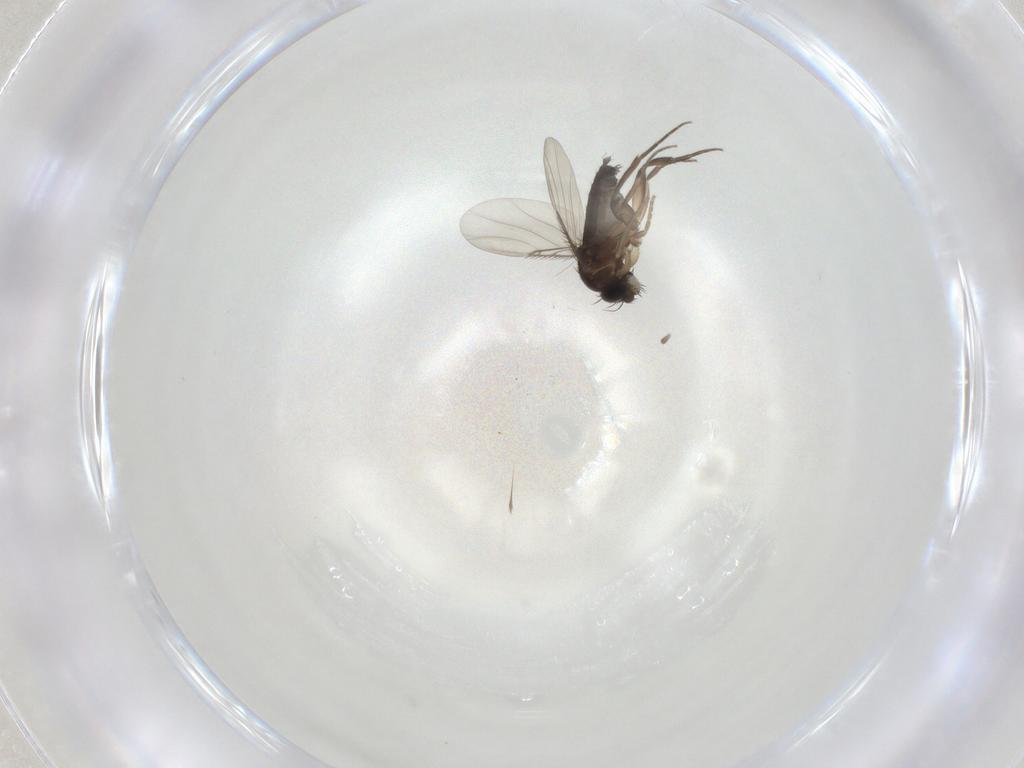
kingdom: Animalia
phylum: Arthropoda
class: Insecta
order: Diptera
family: Phoridae
